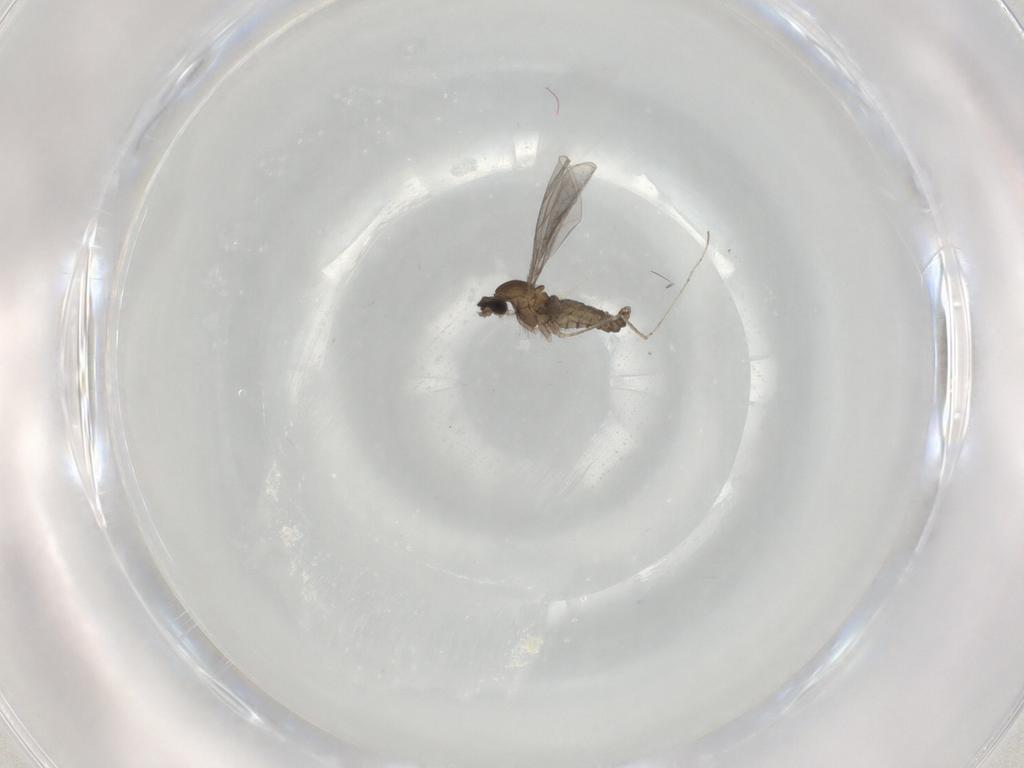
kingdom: Animalia
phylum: Arthropoda
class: Insecta
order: Diptera
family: Cecidomyiidae
